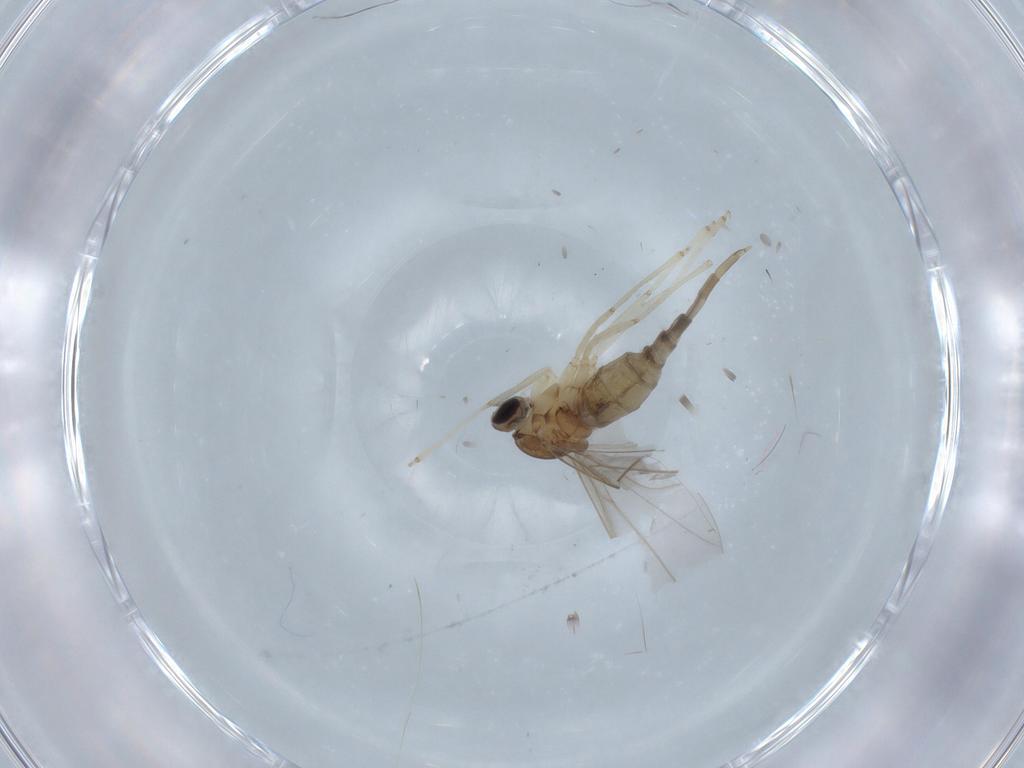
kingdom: Animalia
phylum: Arthropoda
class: Insecta
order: Diptera
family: Cecidomyiidae
